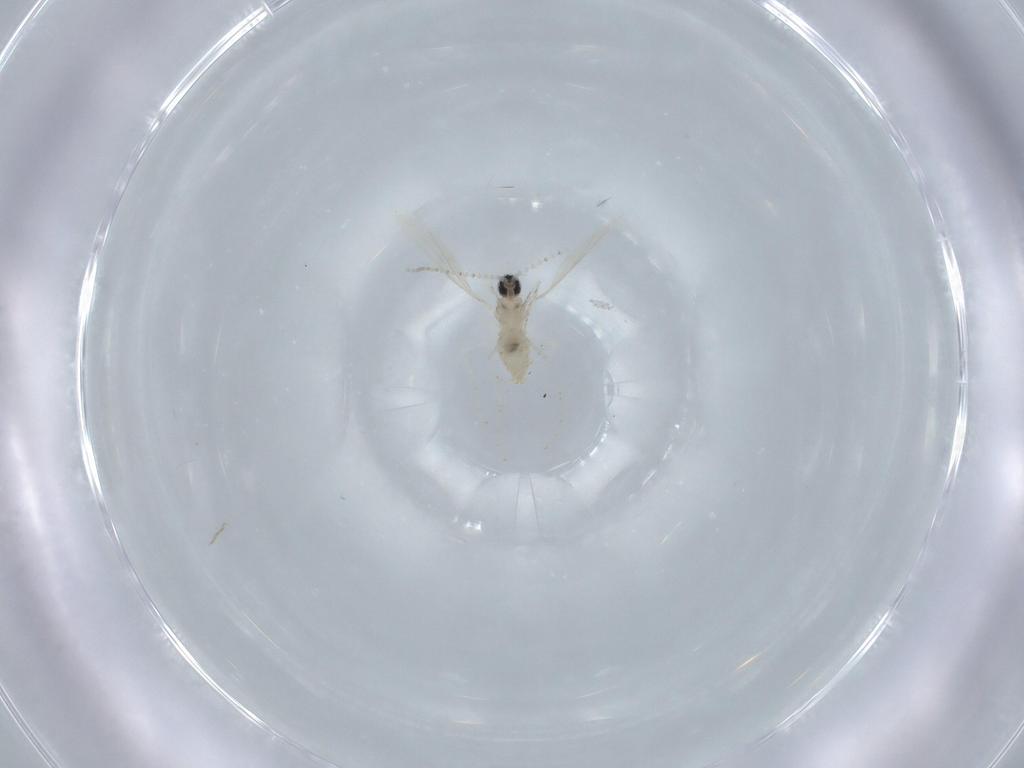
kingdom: Animalia
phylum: Arthropoda
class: Insecta
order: Diptera
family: Cecidomyiidae
